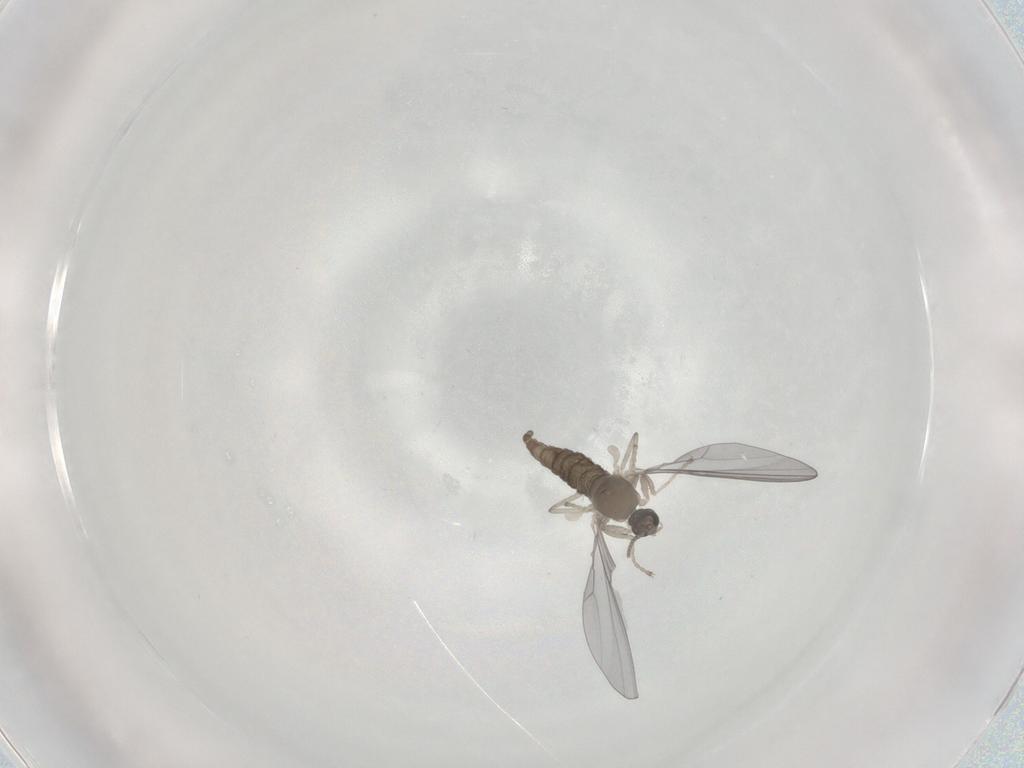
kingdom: Animalia
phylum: Arthropoda
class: Insecta
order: Diptera
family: Cecidomyiidae
